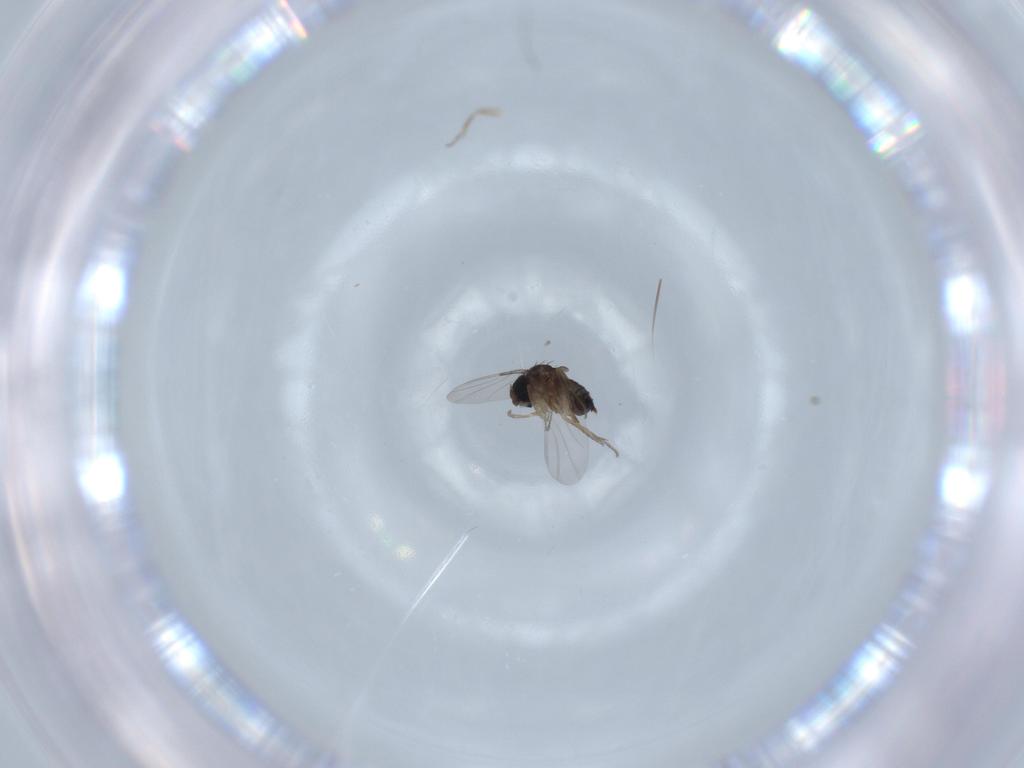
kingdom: Animalia
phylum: Arthropoda
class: Insecta
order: Diptera
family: Phoridae
